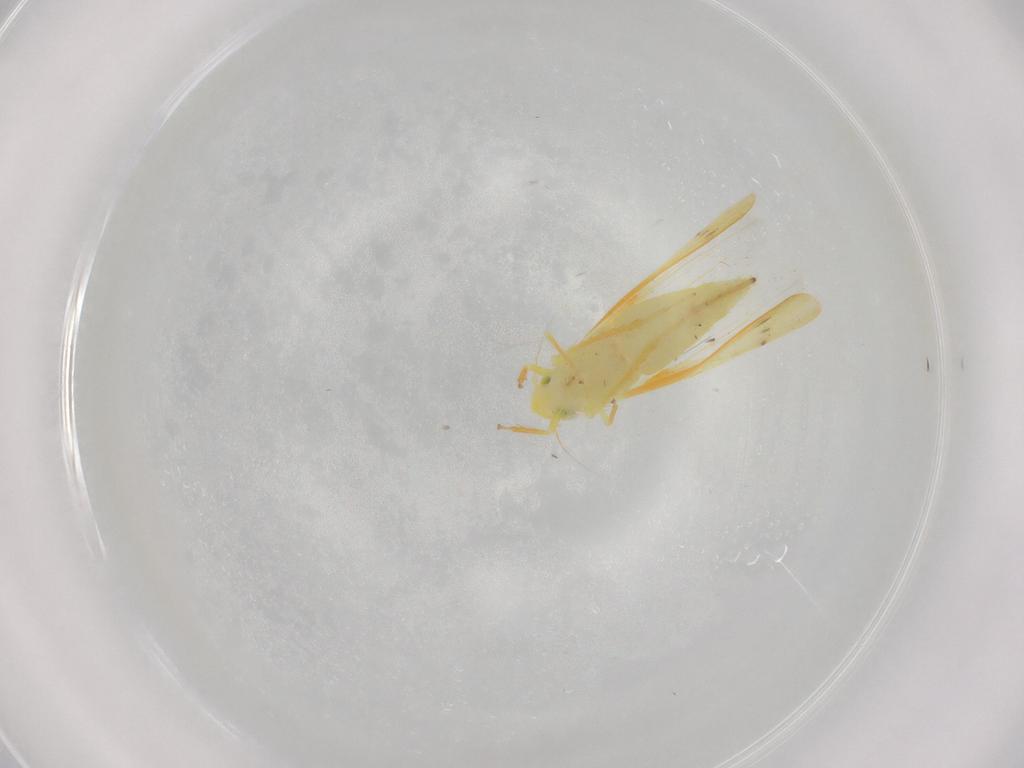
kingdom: Animalia
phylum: Arthropoda
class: Insecta
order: Hemiptera
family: Cicadellidae
